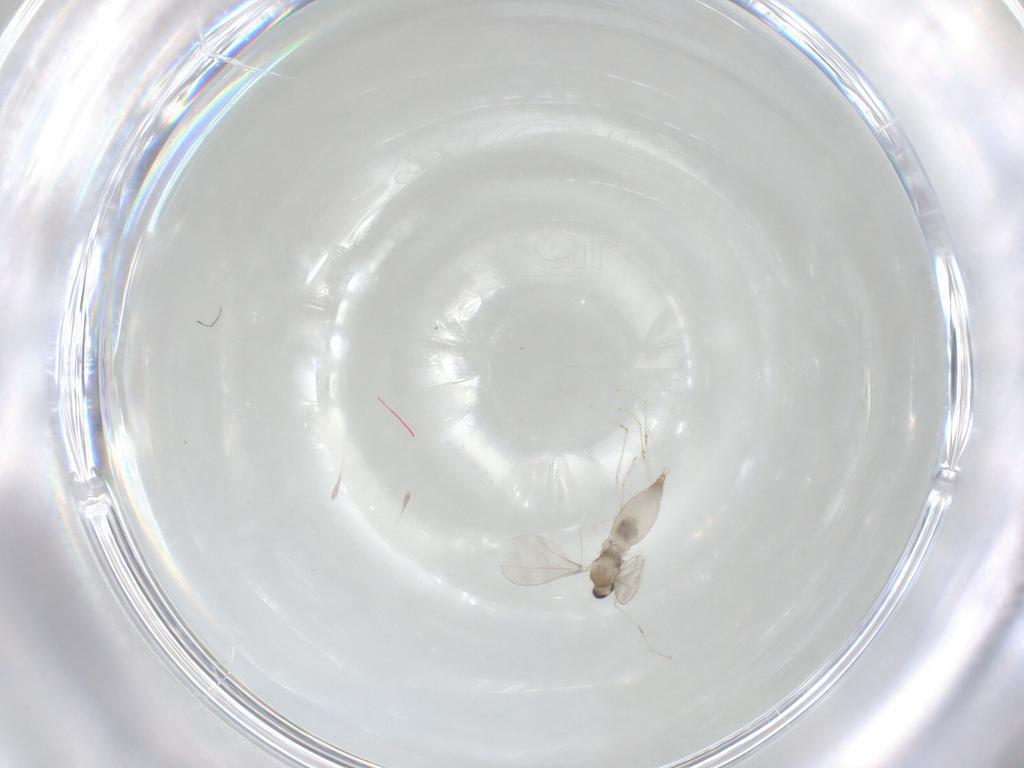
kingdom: Animalia
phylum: Arthropoda
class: Insecta
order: Diptera
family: Cecidomyiidae
